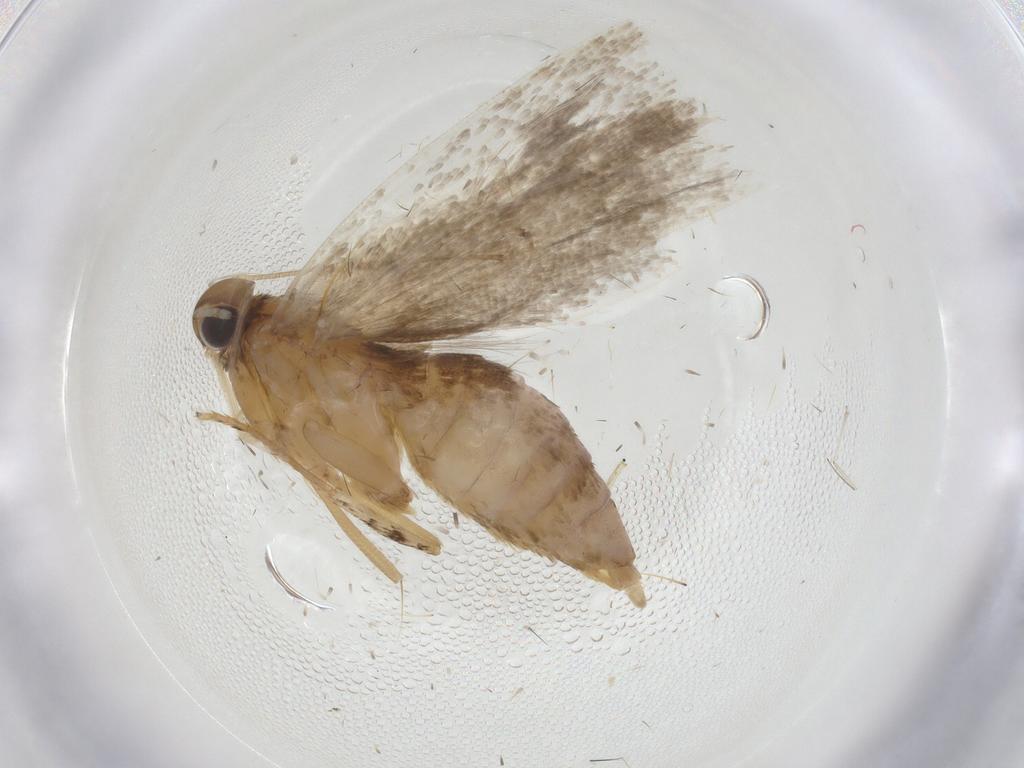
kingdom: Animalia
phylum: Arthropoda
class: Insecta
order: Lepidoptera
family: Gelechiidae
